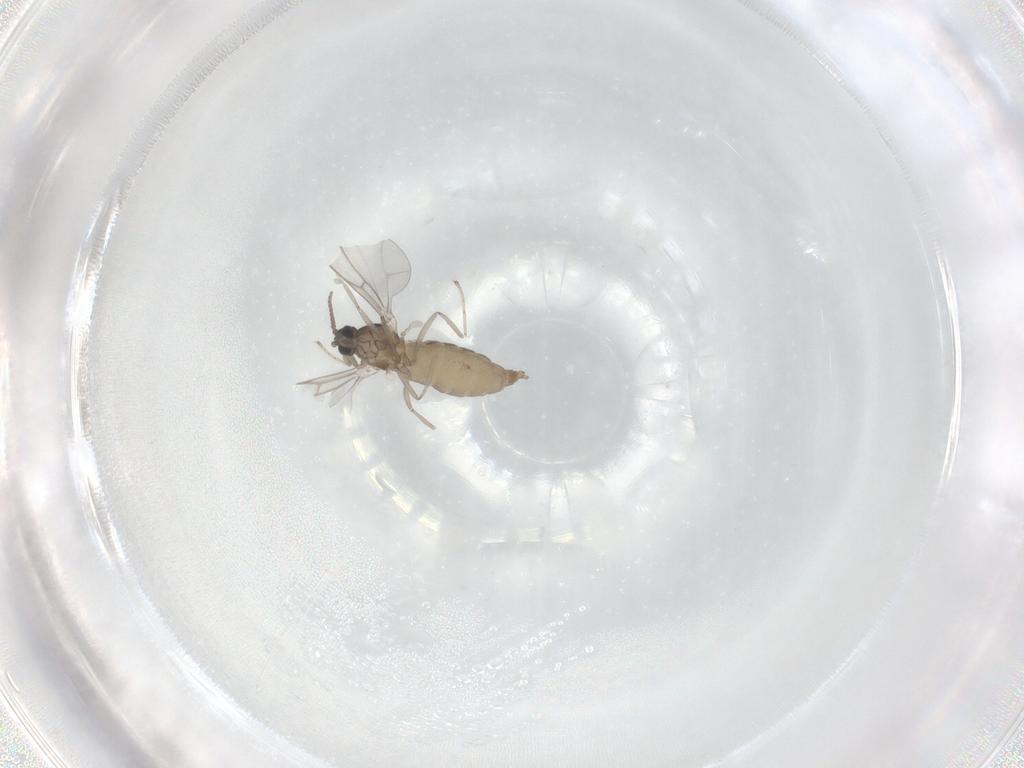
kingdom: Animalia
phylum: Arthropoda
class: Insecta
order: Diptera
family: Cecidomyiidae
